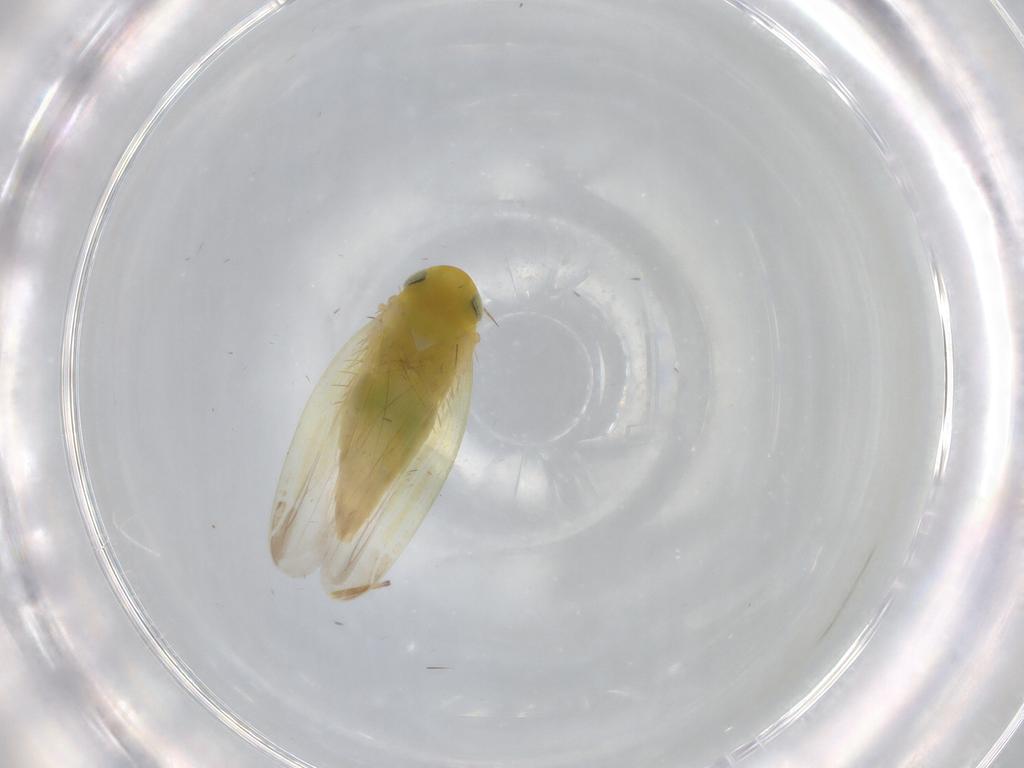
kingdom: Animalia
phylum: Arthropoda
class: Insecta
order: Hemiptera
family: Cicadellidae
